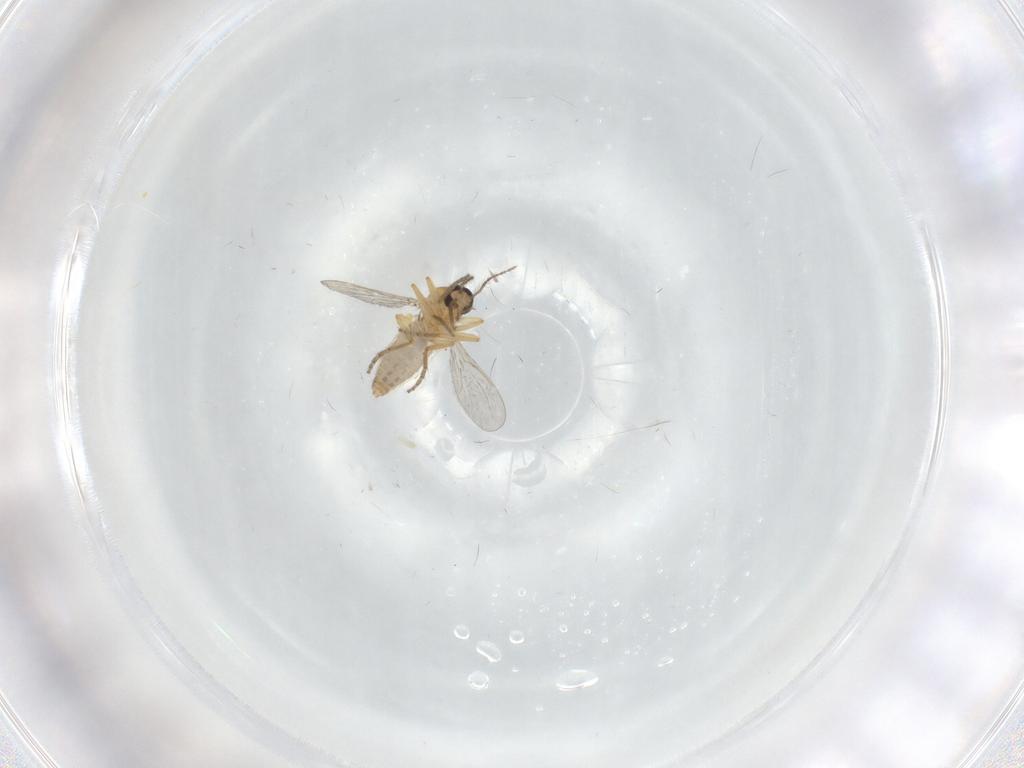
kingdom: Animalia
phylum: Arthropoda
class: Insecta
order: Diptera
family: Ceratopogonidae
